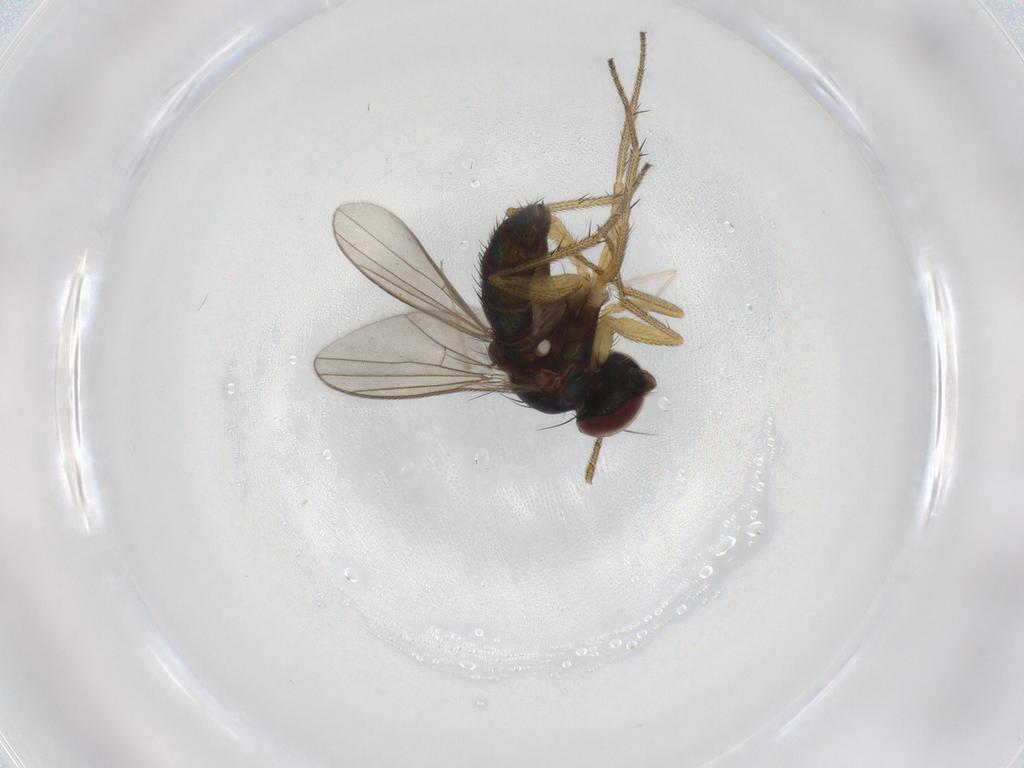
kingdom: Animalia
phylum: Arthropoda
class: Insecta
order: Diptera
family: Dolichopodidae
